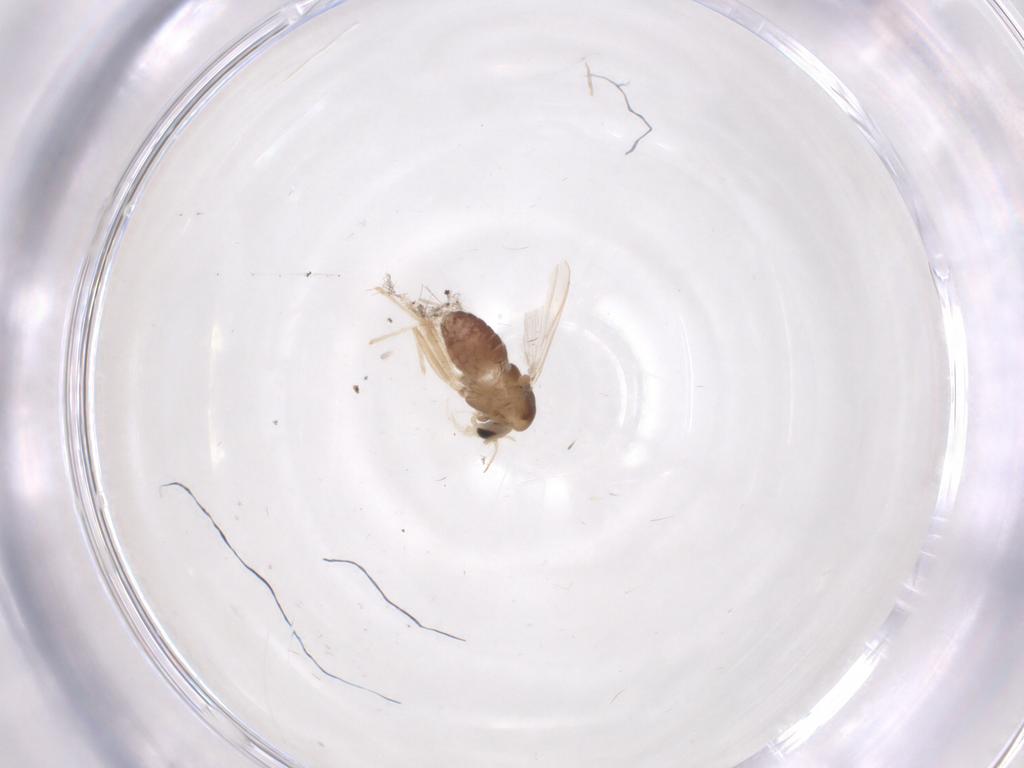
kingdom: Animalia
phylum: Arthropoda
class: Insecta
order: Diptera
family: Chironomidae
